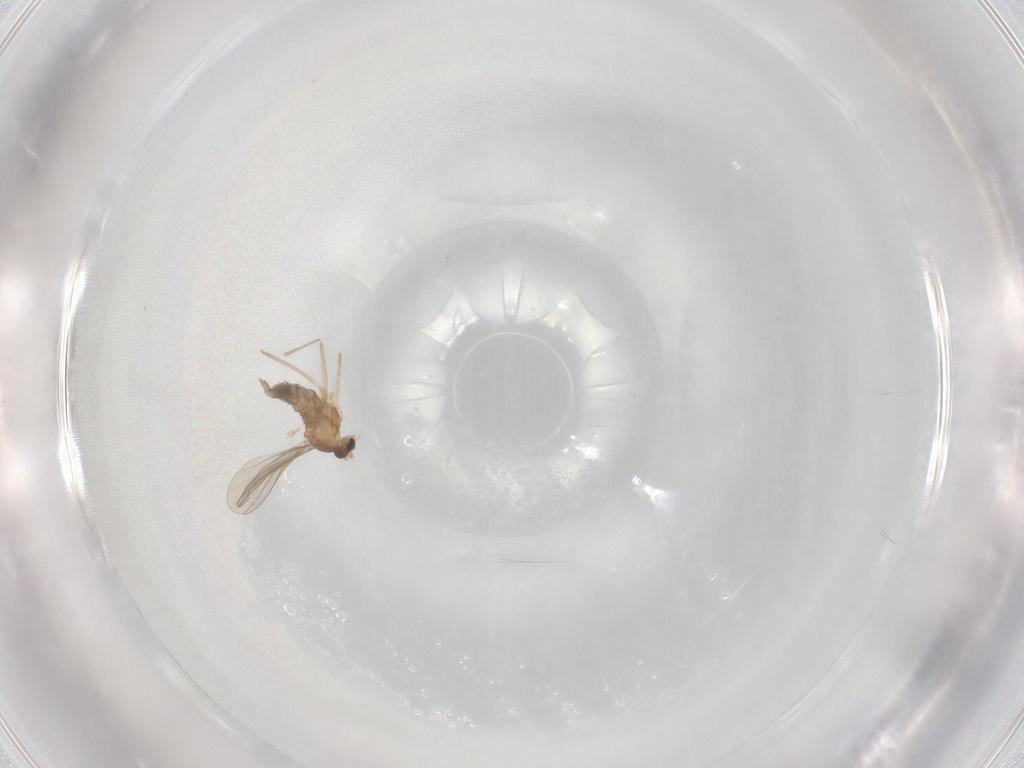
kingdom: Animalia
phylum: Arthropoda
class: Insecta
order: Diptera
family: Cecidomyiidae
